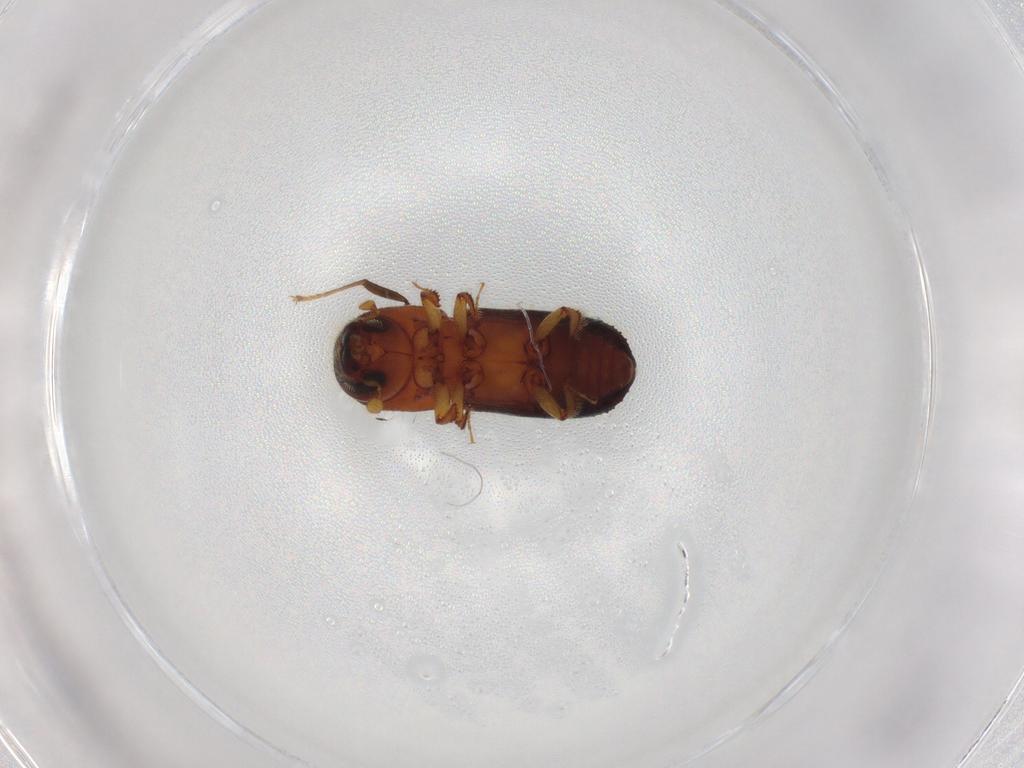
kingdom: Animalia
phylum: Arthropoda
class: Insecta
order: Coleoptera
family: Curculionidae
